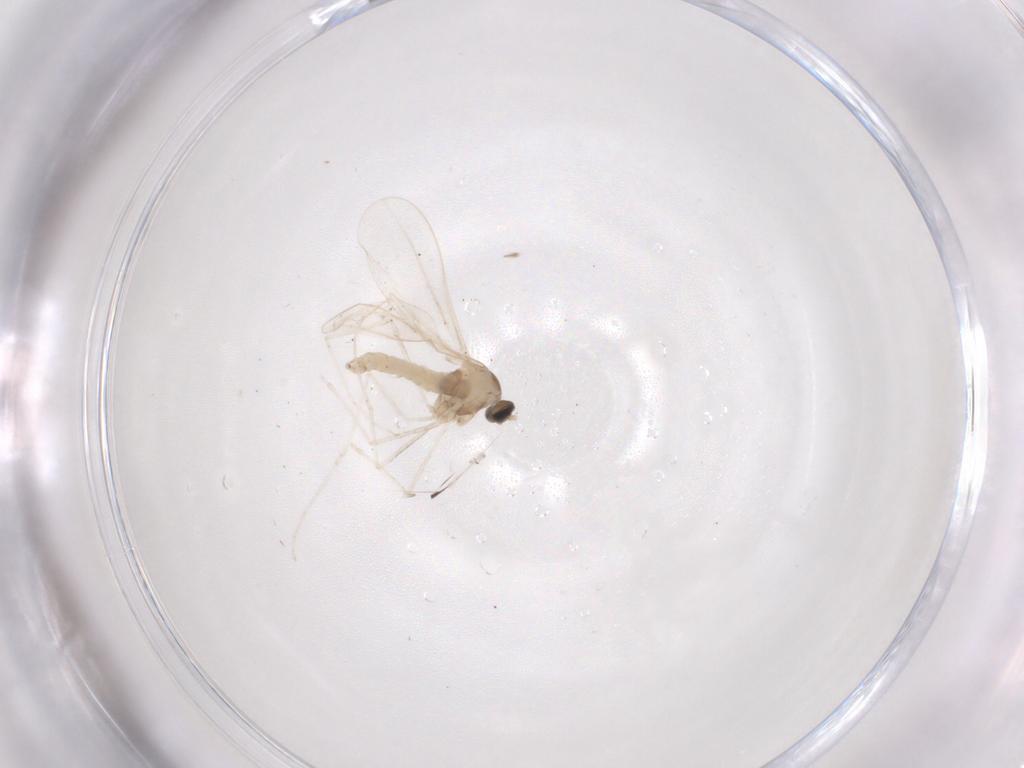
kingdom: Animalia
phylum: Arthropoda
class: Insecta
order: Diptera
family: Cecidomyiidae
